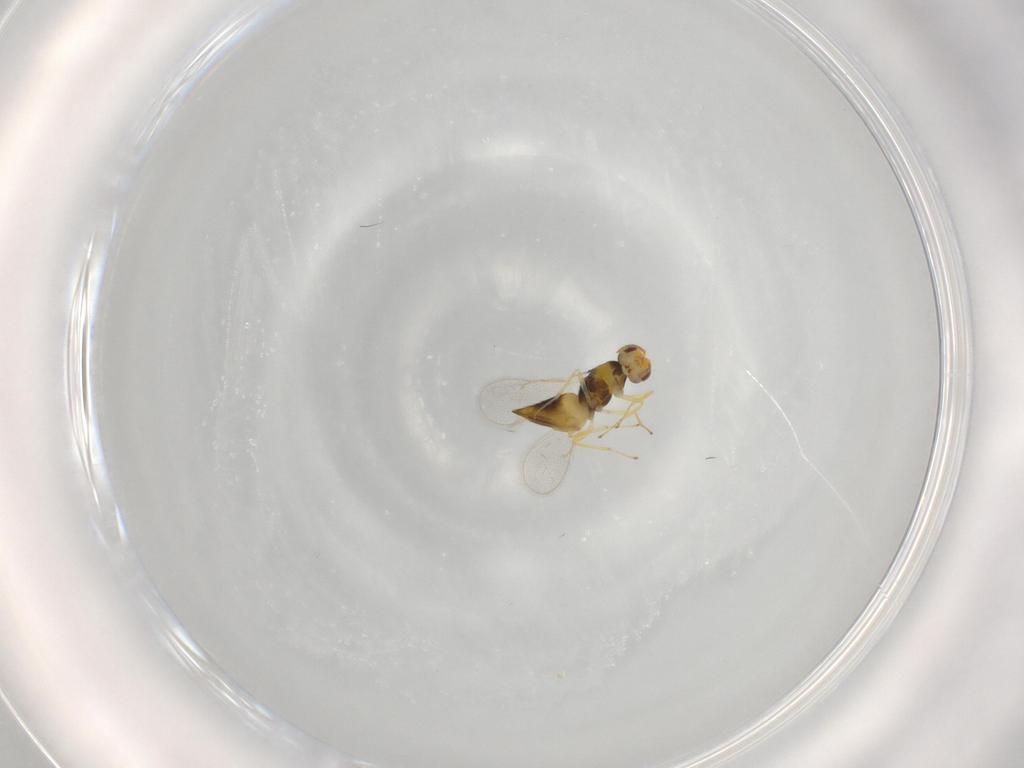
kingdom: Animalia
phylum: Arthropoda
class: Insecta
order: Hymenoptera
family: Eulophidae
